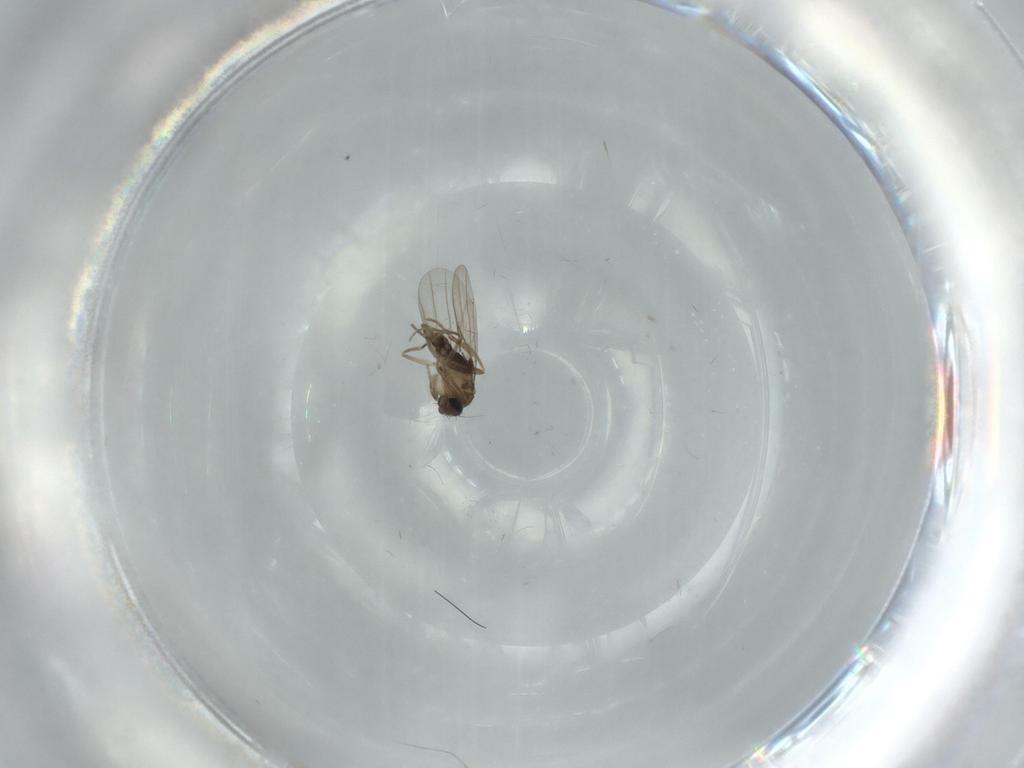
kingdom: Animalia
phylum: Arthropoda
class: Insecta
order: Diptera
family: Phoridae
